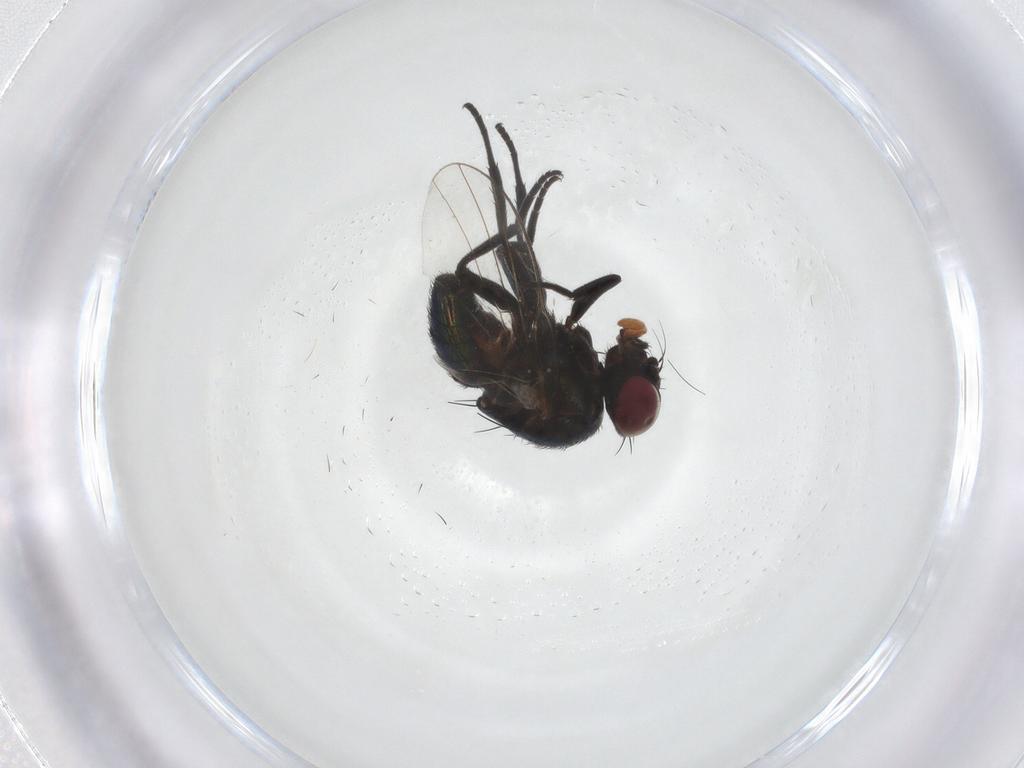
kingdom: Animalia
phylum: Arthropoda
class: Insecta
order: Diptera
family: Agromyzidae
